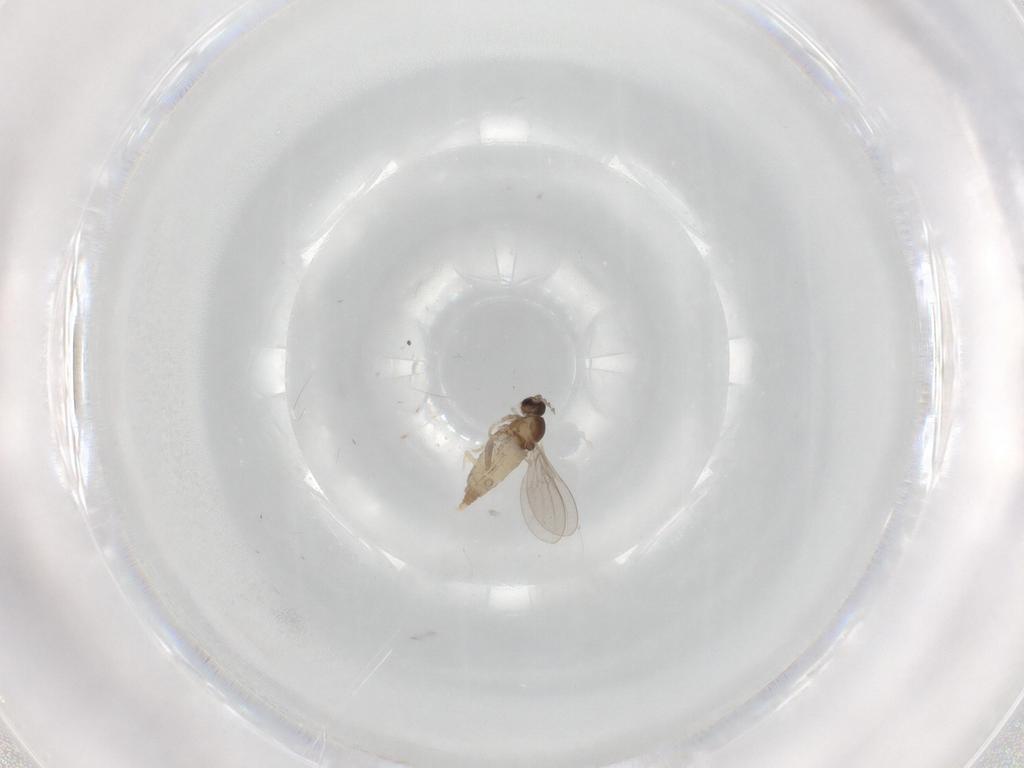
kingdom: Animalia
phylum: Arthropoda
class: Insecta
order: Diptera
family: Cecidomyiidae
